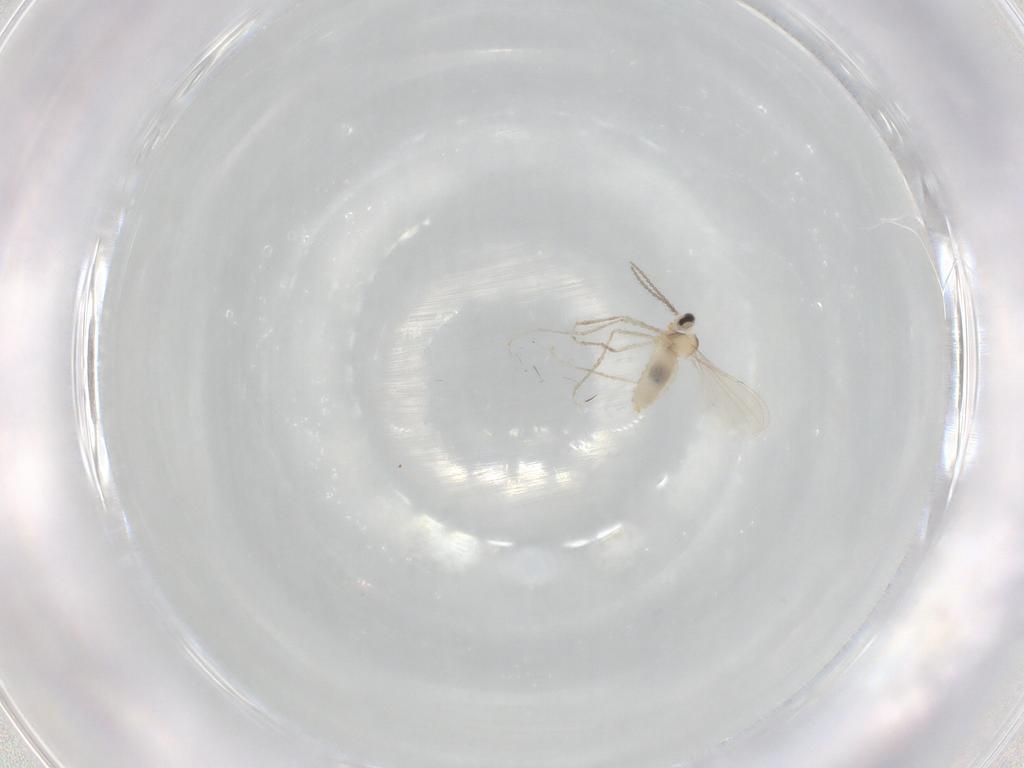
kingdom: Animalia
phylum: Arthropoda
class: Insecta
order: Diptera
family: Cecidomyiidae
